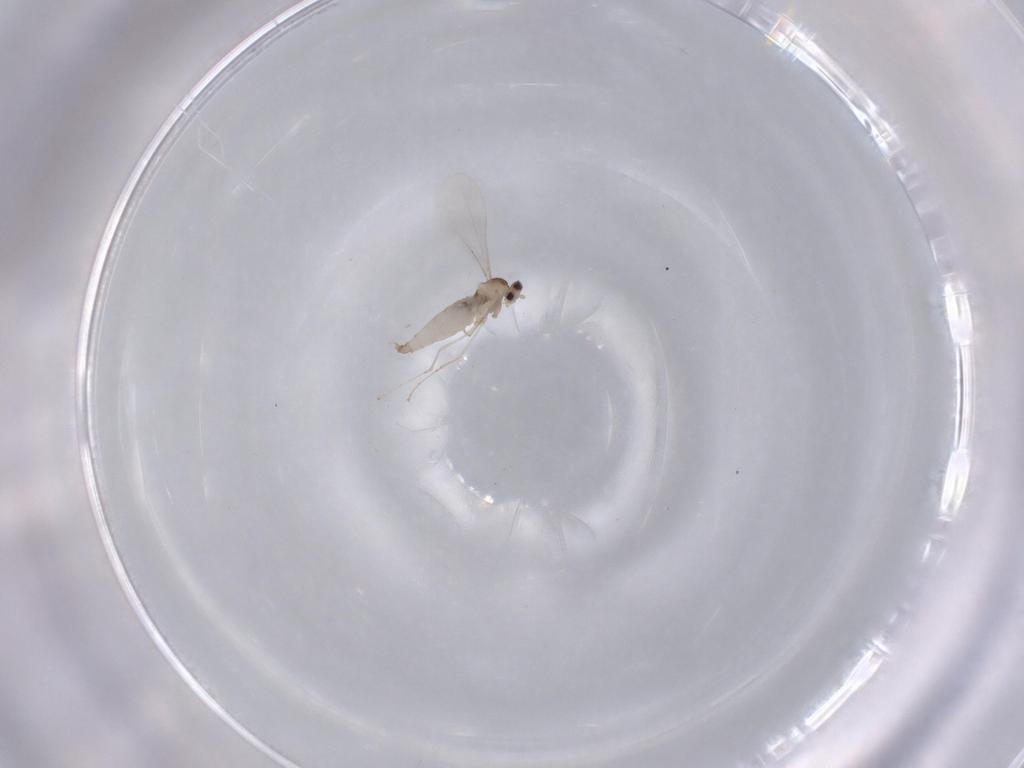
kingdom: Animalia
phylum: Arthropoda
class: Insecta
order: Diptera
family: Cecidomyiidae
